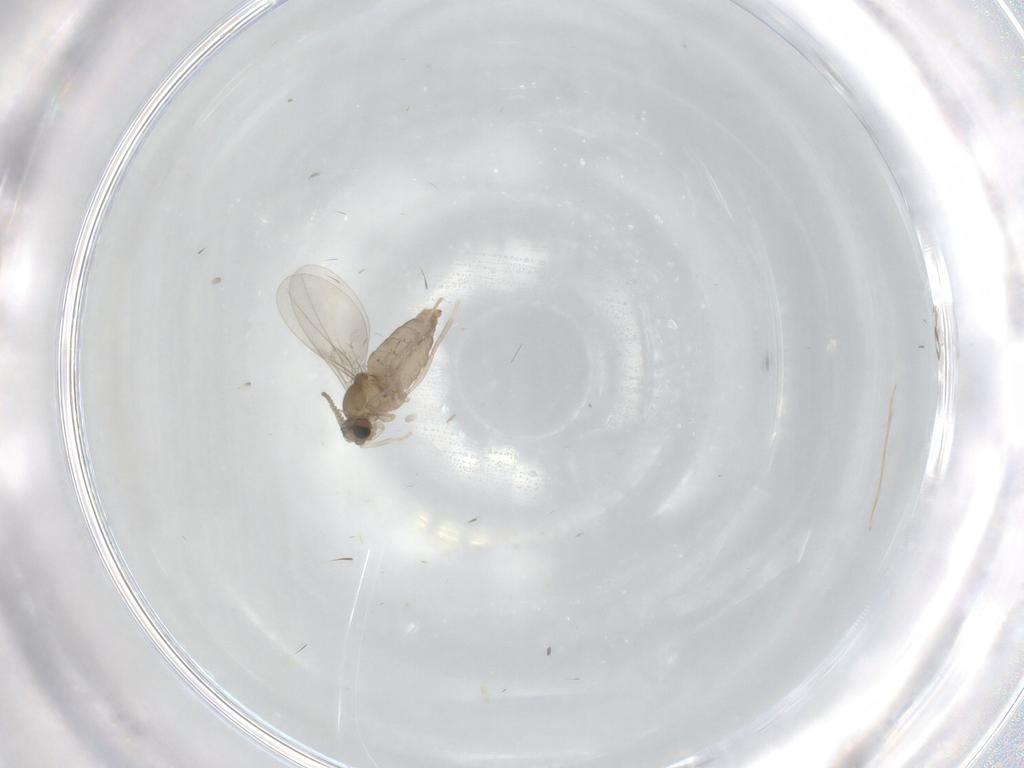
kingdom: Animalia
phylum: Arthropoda
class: Insecta
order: Diptera
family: Cecidomyiidae
